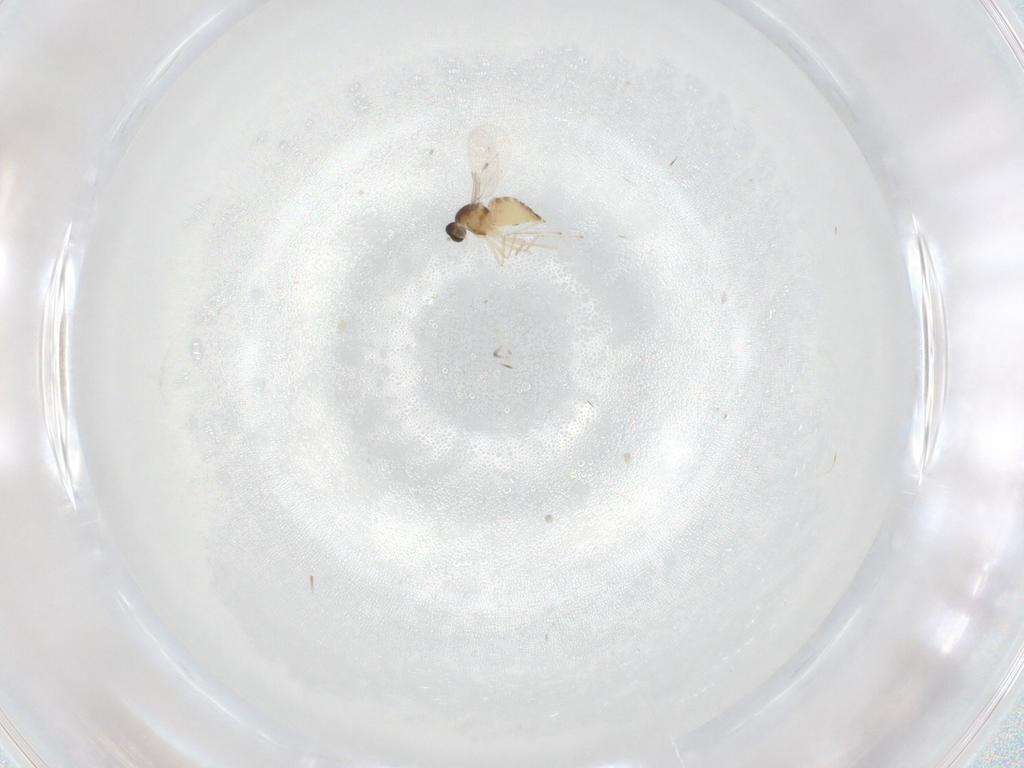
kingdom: Animalia
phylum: Arthropoda
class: Insecta
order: Diptera
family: Cecidomyiidae
